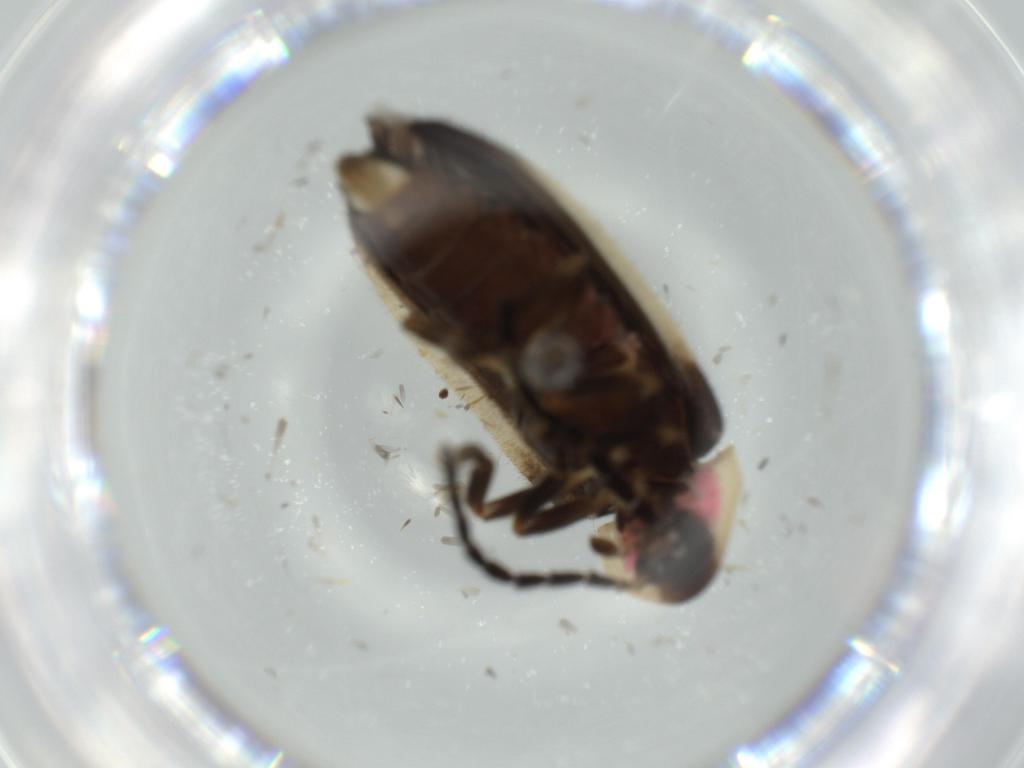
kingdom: Animalia
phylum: Arthropoda
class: Insecta
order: Coleoptera
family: Lampyridae
